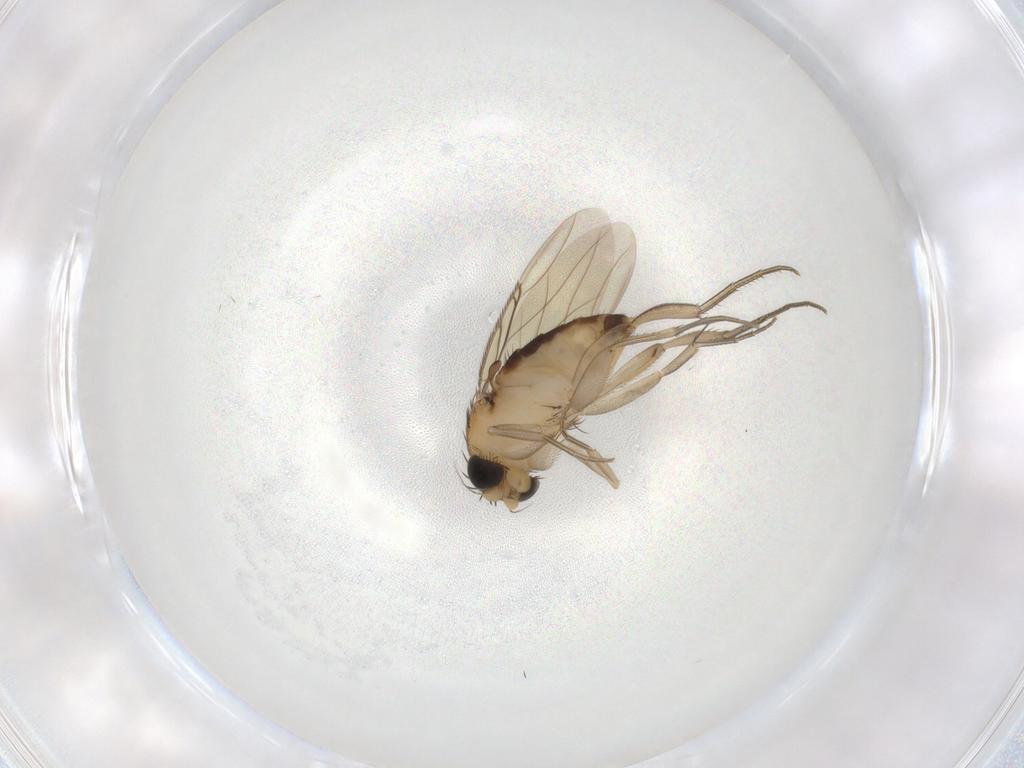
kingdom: Animalia
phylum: Arthropoda
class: Insecta
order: Diptera
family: Phoridae
